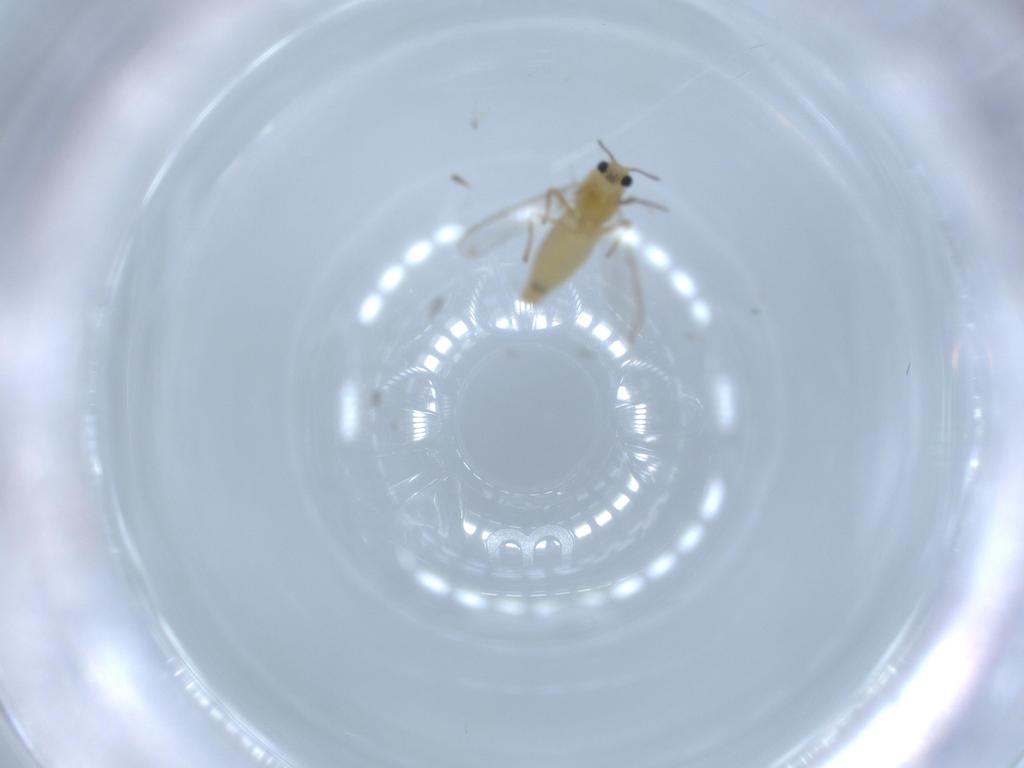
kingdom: Animalia
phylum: Arthropoda
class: Insecta
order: Diptera
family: Chironomidae
